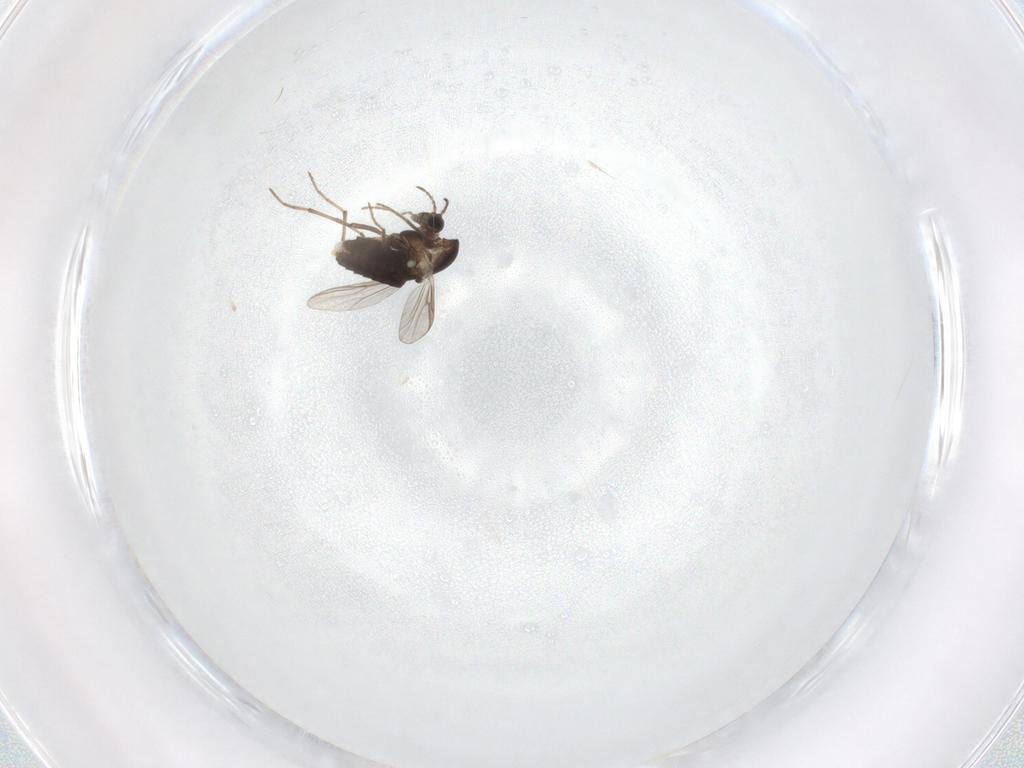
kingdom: Animalia
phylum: Arthropoda
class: Insecta
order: Diptera
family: Chironomidae
